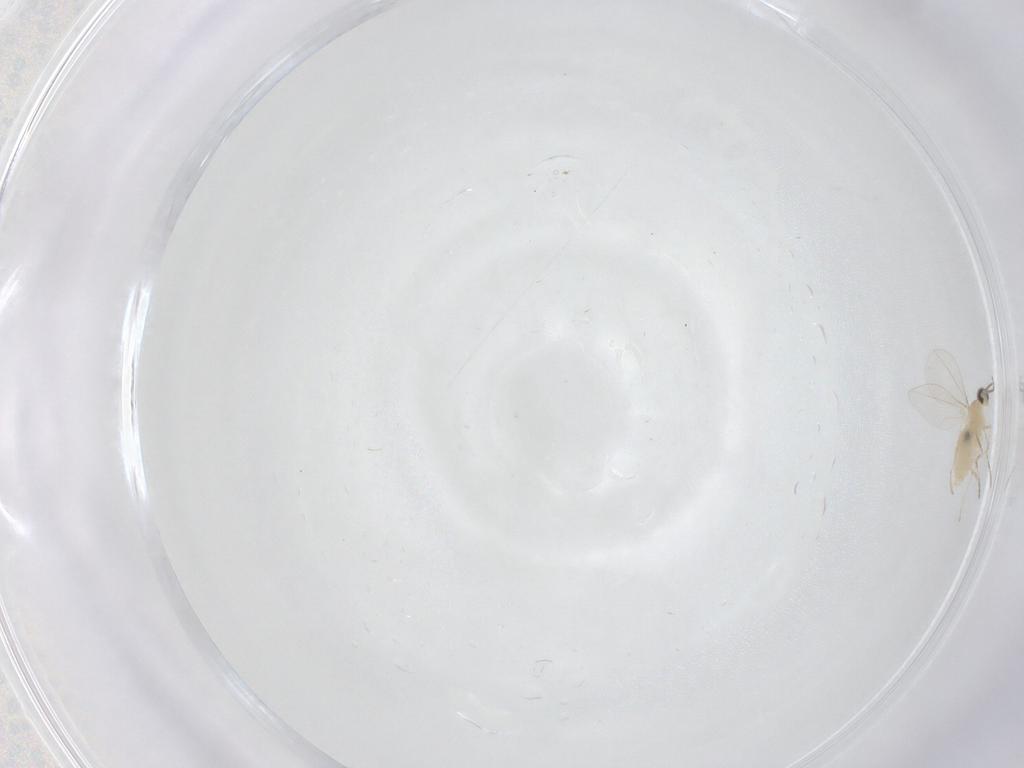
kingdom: Animalia
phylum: Arthropoda
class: Insecta
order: Diptera
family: Cecidomyiidae
